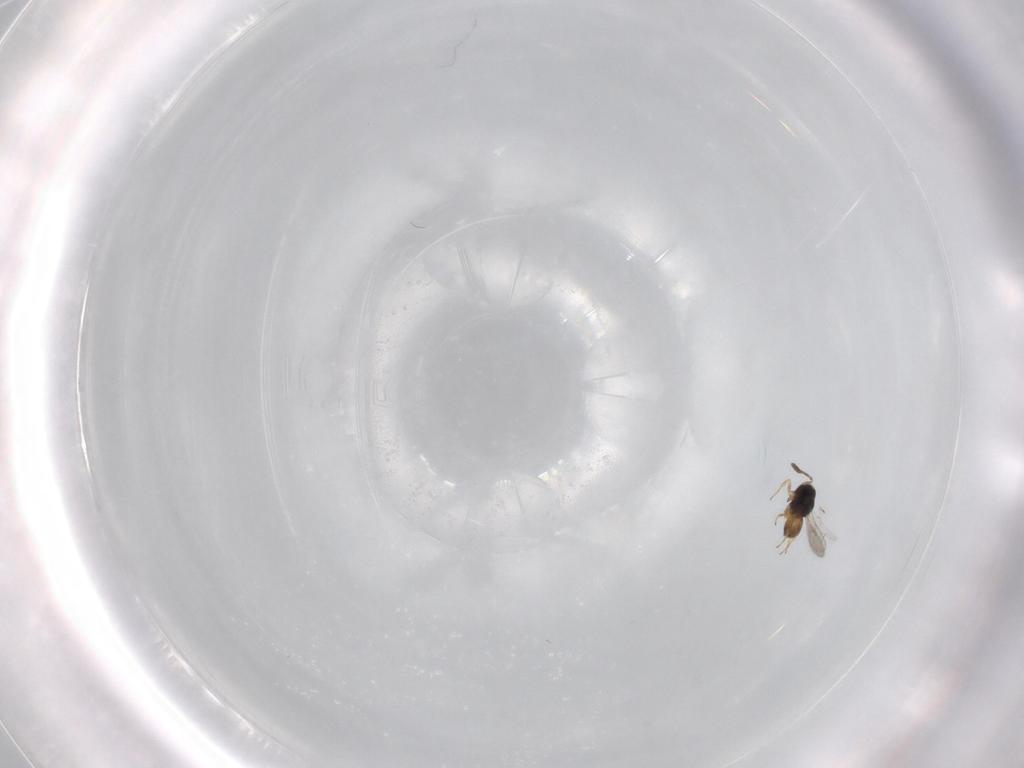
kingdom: Animalia
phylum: Arthropoda
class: Insecta
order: Hymenoptera
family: Scelionidae
